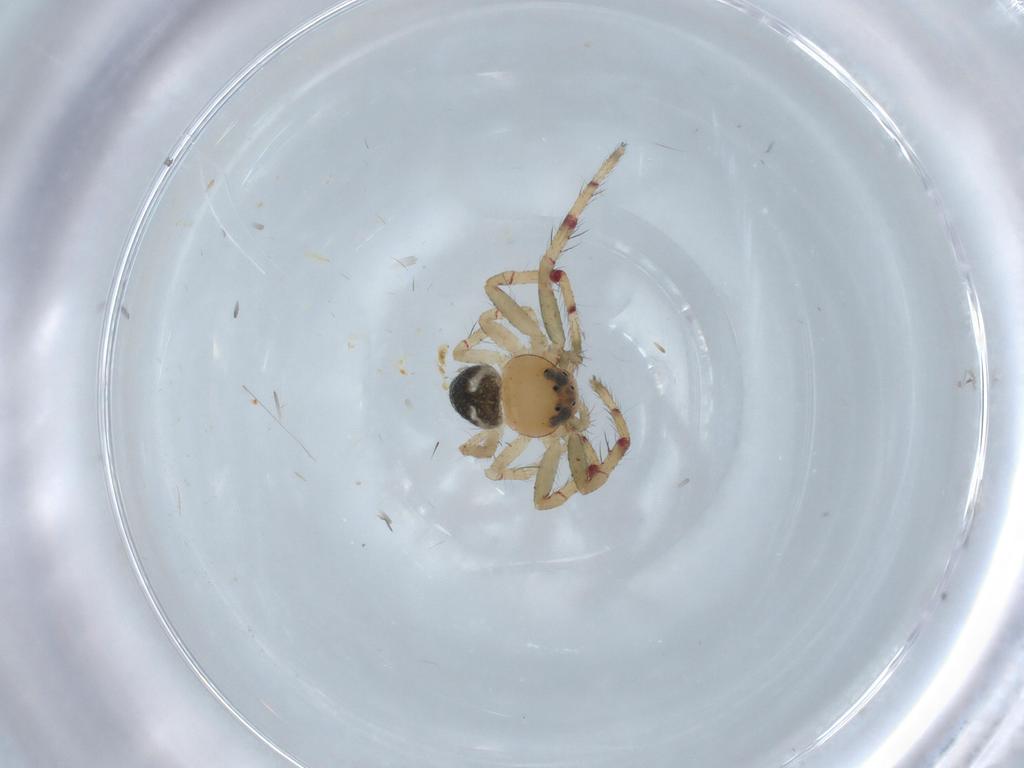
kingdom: Animalia
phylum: Arthropoda
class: Arachnida
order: Araneae
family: Thomisidae
